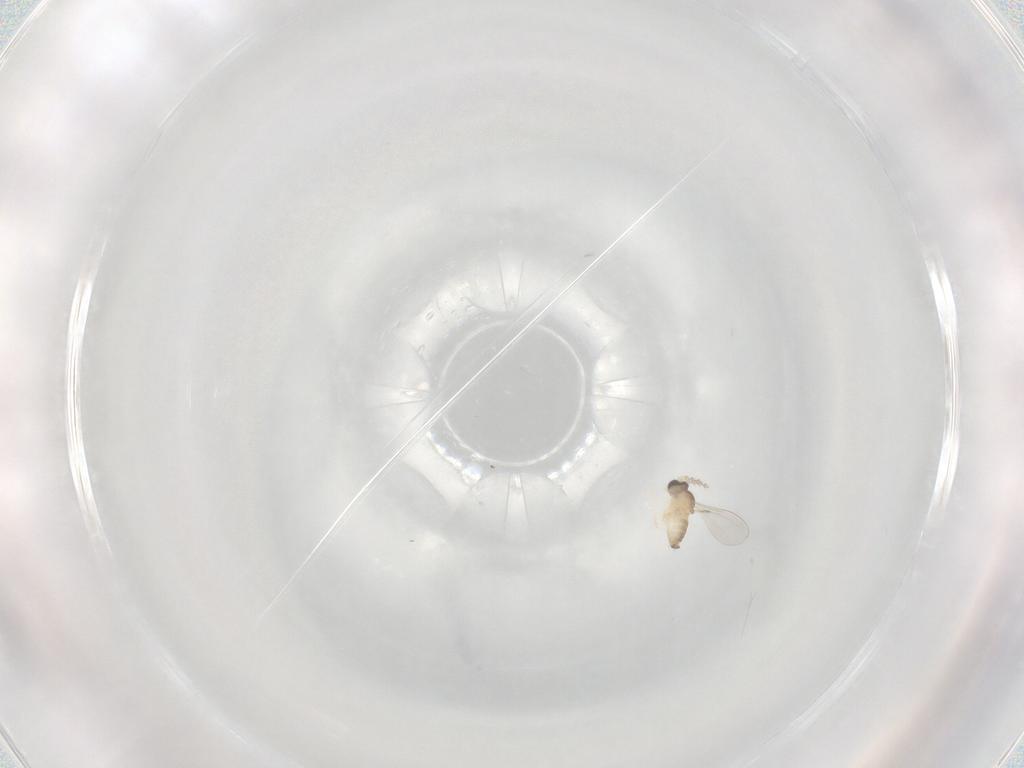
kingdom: Animalia
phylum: Arthropoda
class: Insecta
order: Diptera
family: Cecidomyiidae
